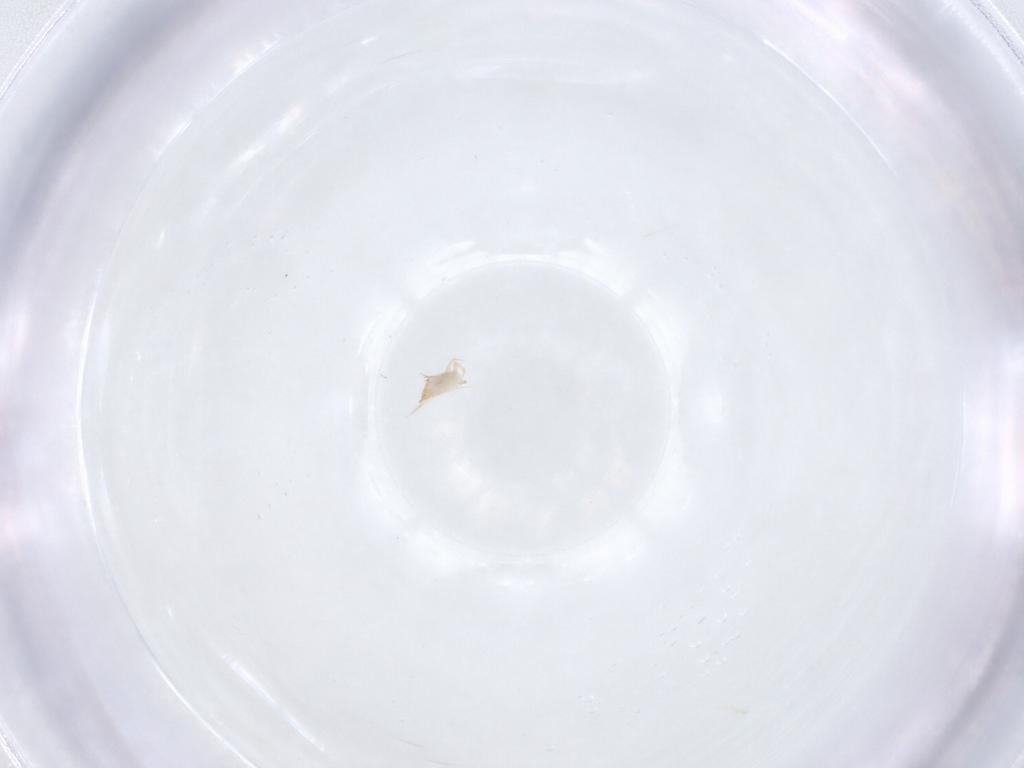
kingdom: Animalia
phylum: Arthropoda
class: Arachnida
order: Trombidiformes
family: Cunaxidae
